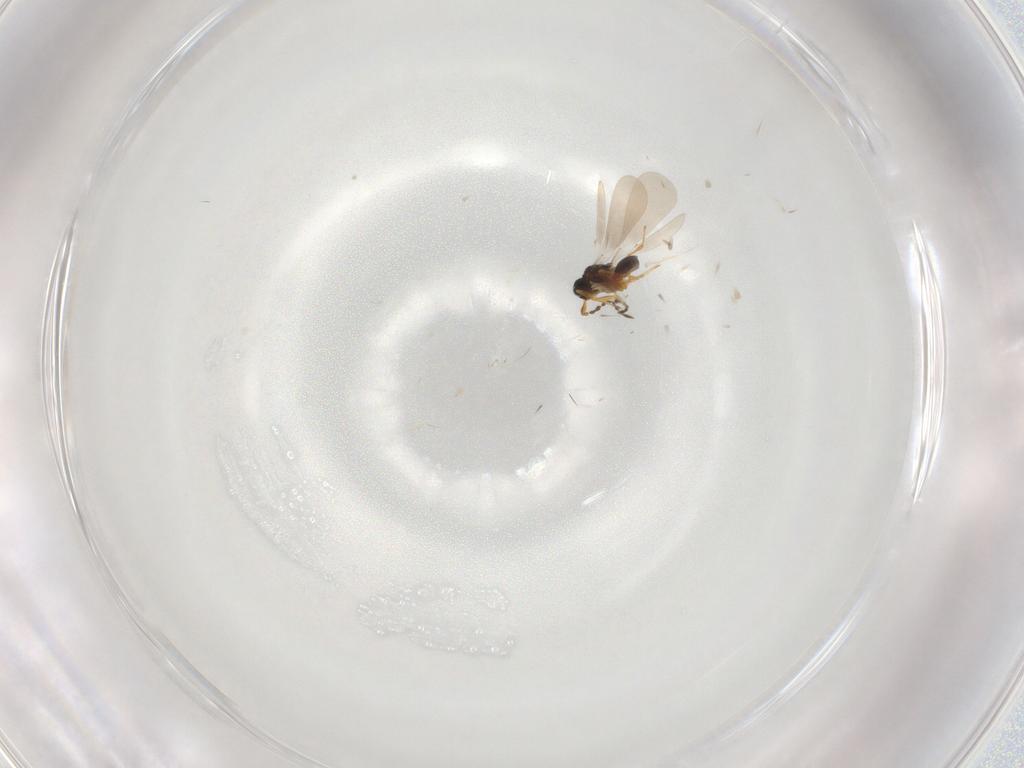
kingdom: Animalia
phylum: Arthropoda
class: Insecta
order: Hymenoptera
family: Platygastridae
